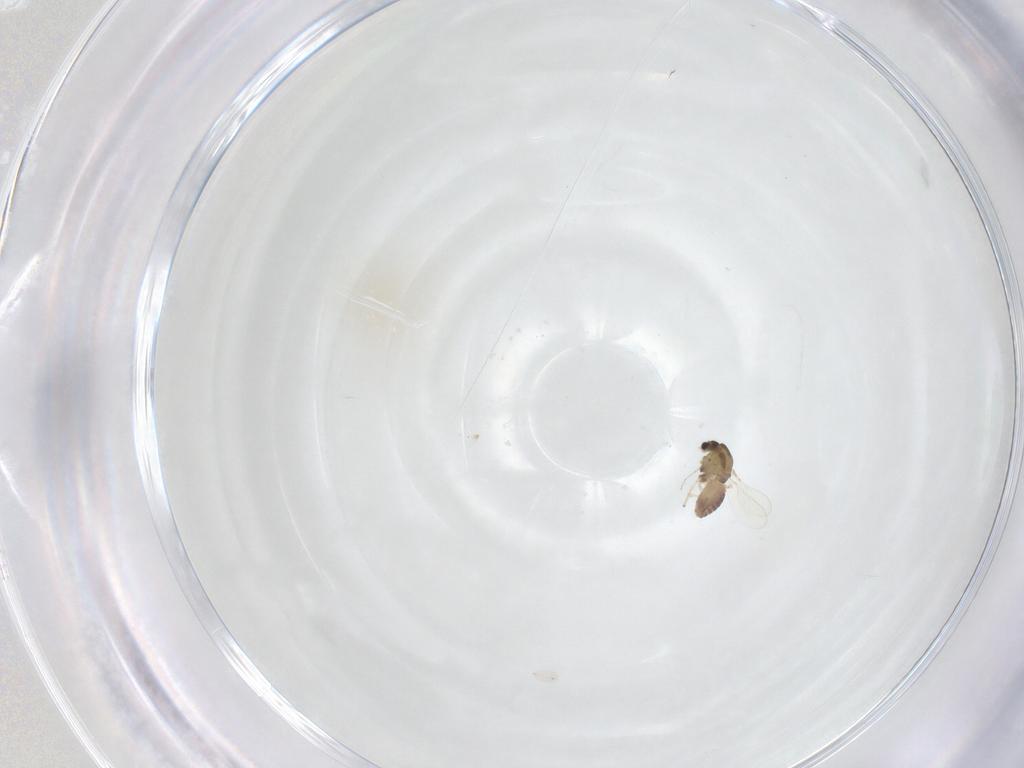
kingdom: Animalia
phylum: Arthropoda
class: Insecta
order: Diptera
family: Chironomidae
